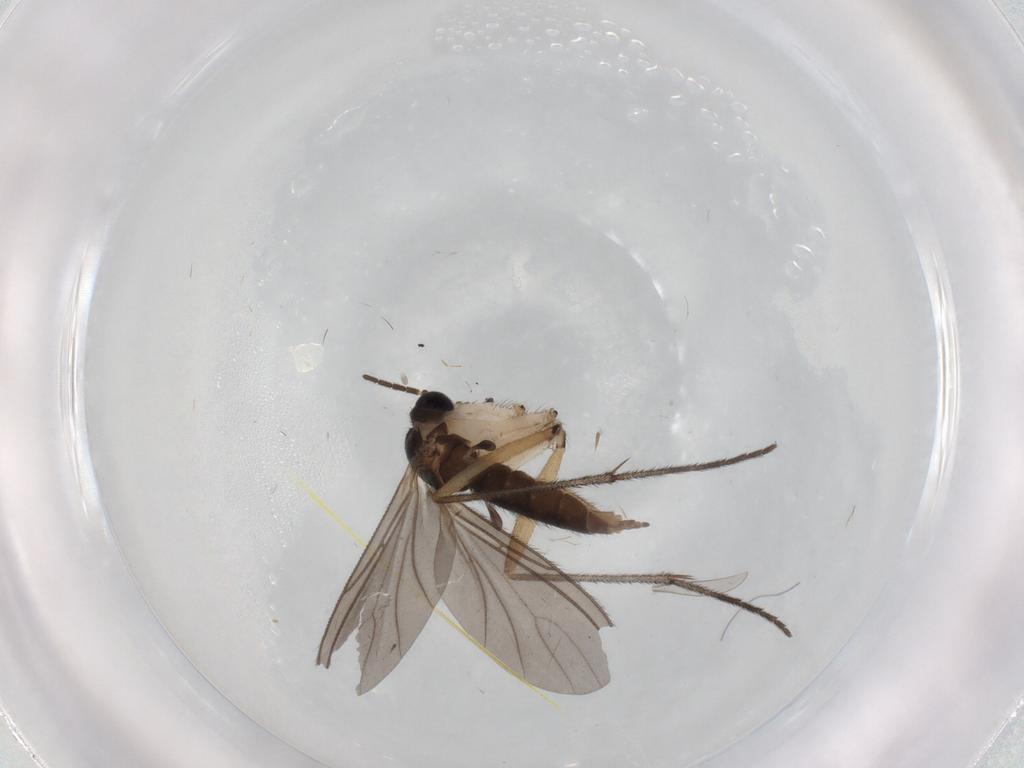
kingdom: Animalia
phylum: Arthropoda
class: Insecta
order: Diptera
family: Sciaridae
